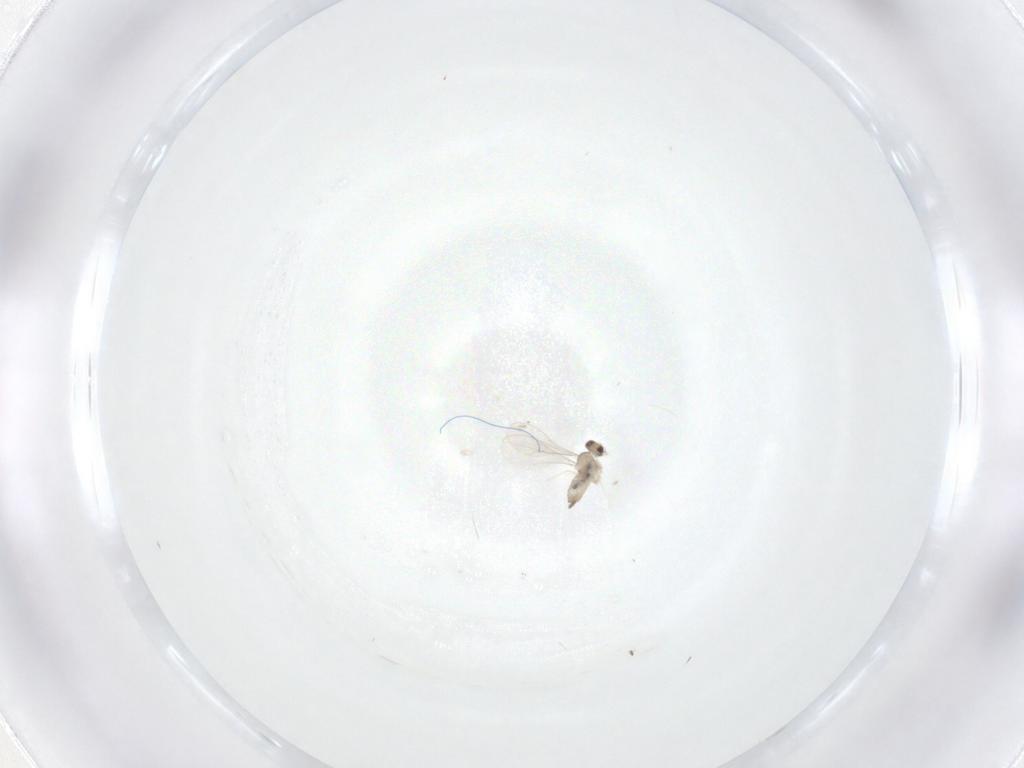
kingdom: Animalia
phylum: Arthropoda
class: Insecta
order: Diptera
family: Cecidomyiidae
